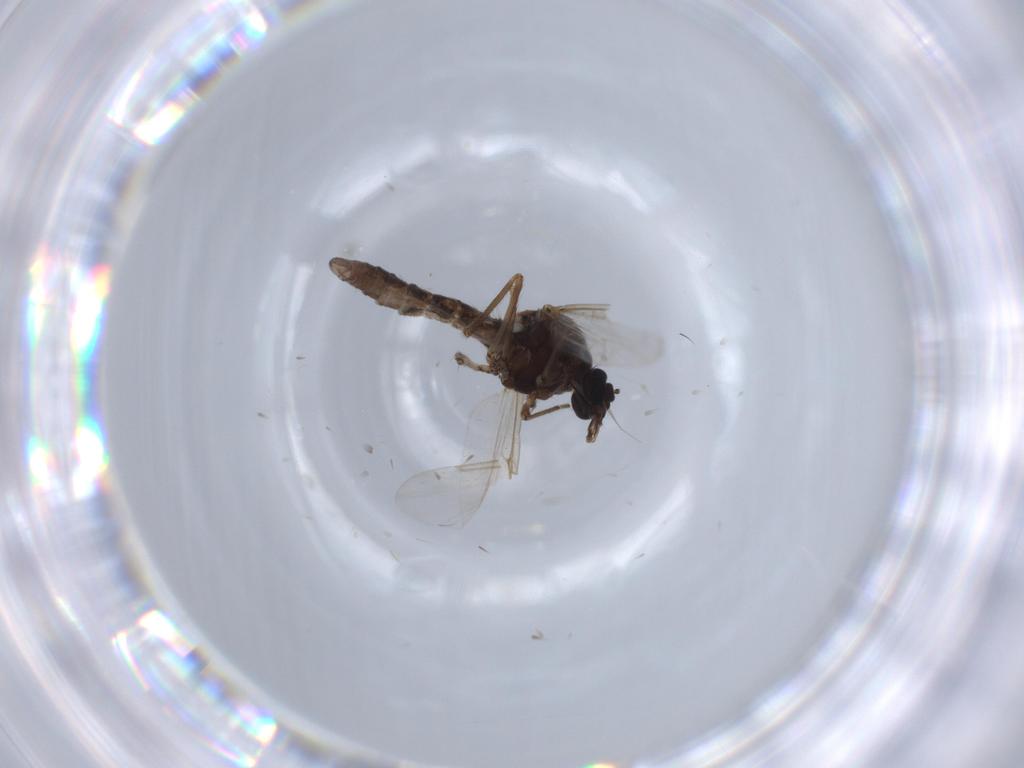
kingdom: Animalia
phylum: Arthropoda
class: Insecta
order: Diptera
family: Ceratopogonidae
